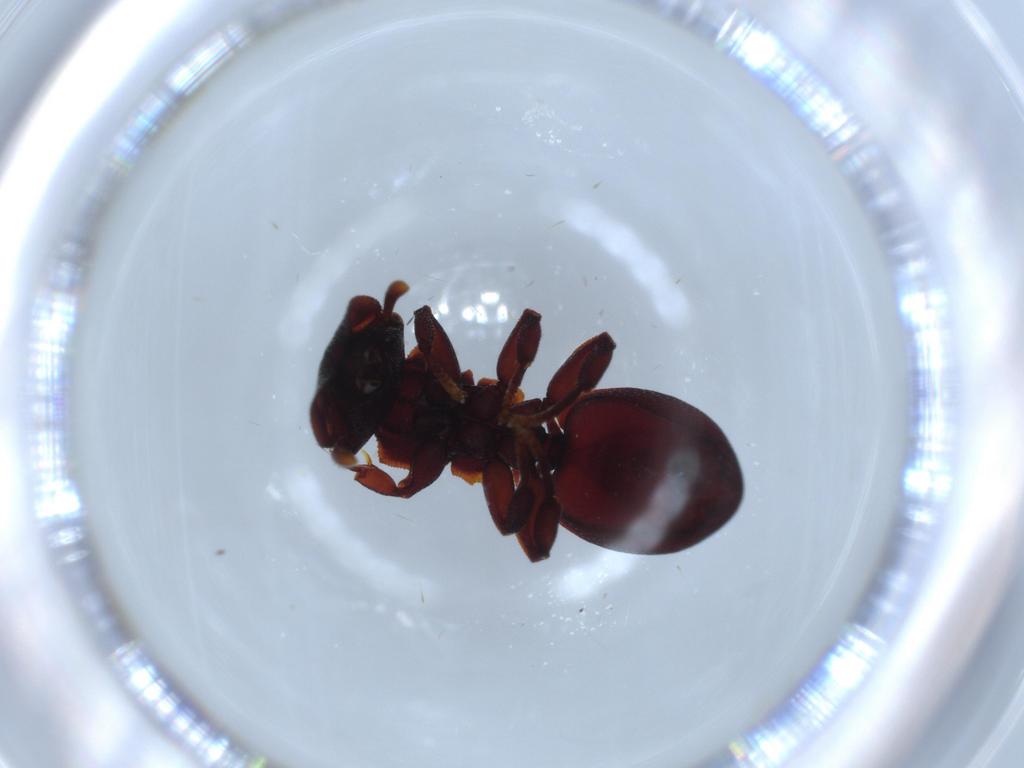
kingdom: Animalia
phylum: Arthropoda
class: Insecta
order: Hymenoptera
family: Formicidae
